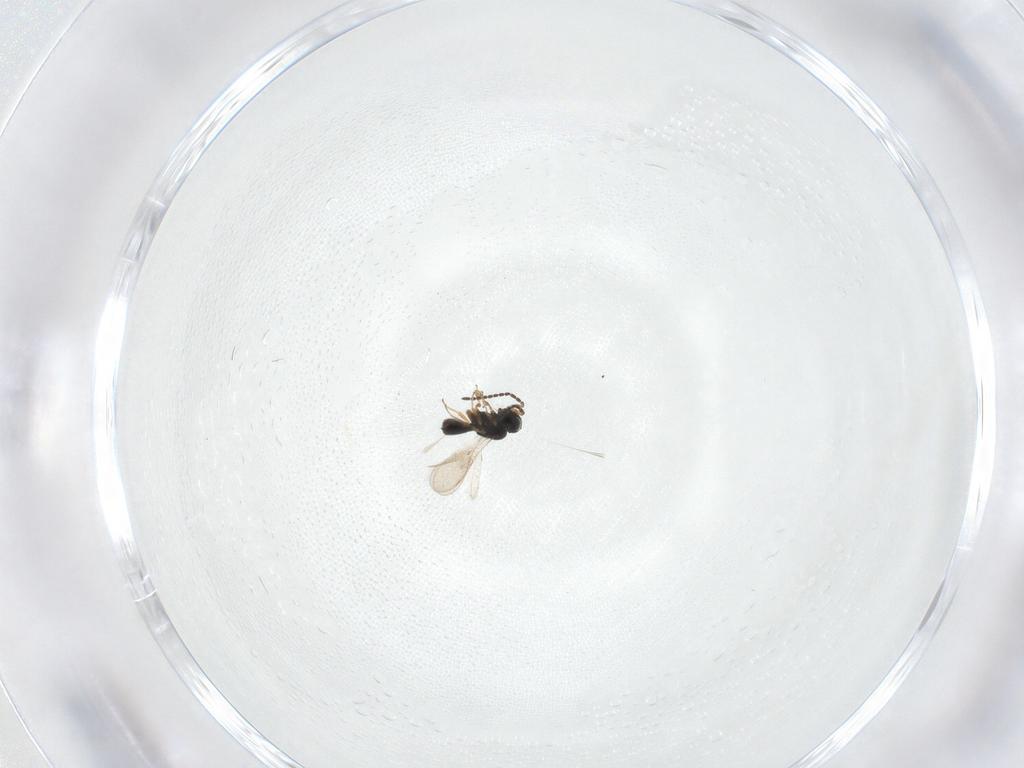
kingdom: Animalia
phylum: Arthropoda
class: Insecta
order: Hymenoptera
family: Scelionidae
